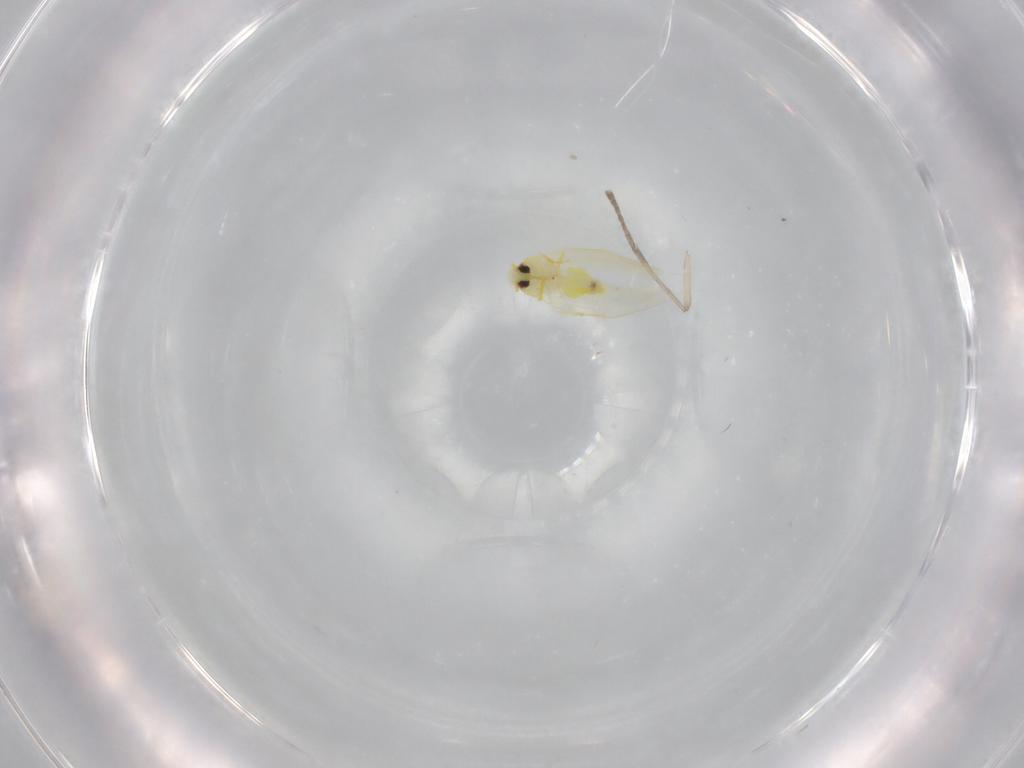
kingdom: Animalia
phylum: Arthropoda
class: Insecta
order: Hemiptera
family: Aleyrodidae
